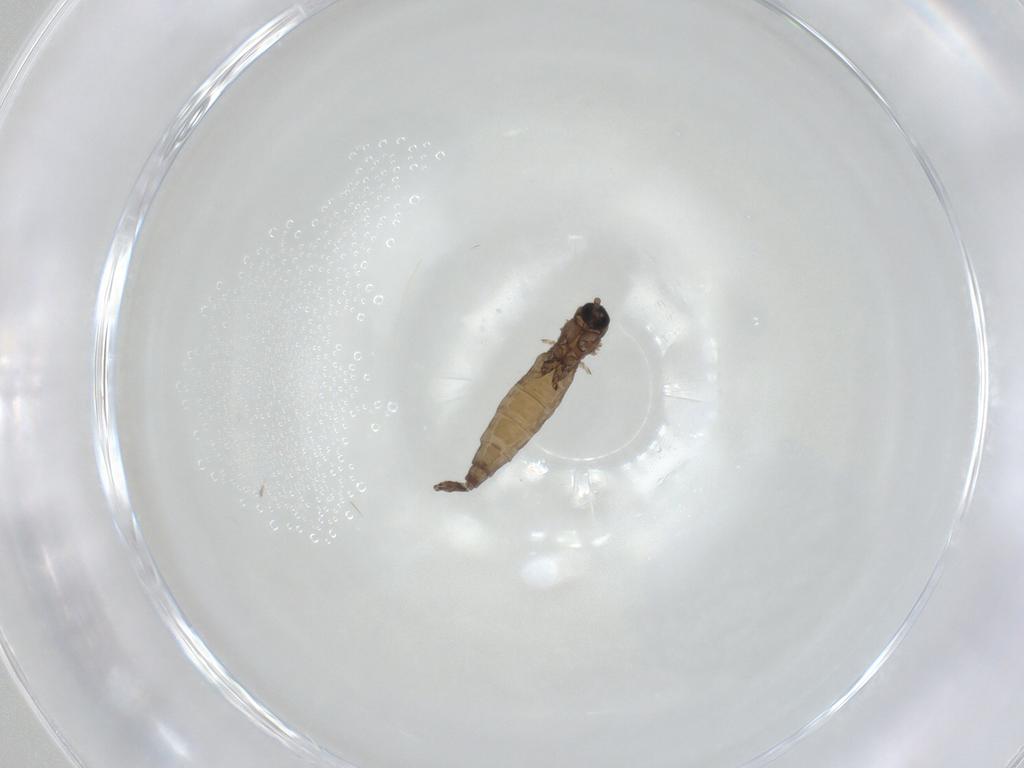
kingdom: Animalia
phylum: Arthropoda
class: Insecta
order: Diptera
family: Sciaridae
